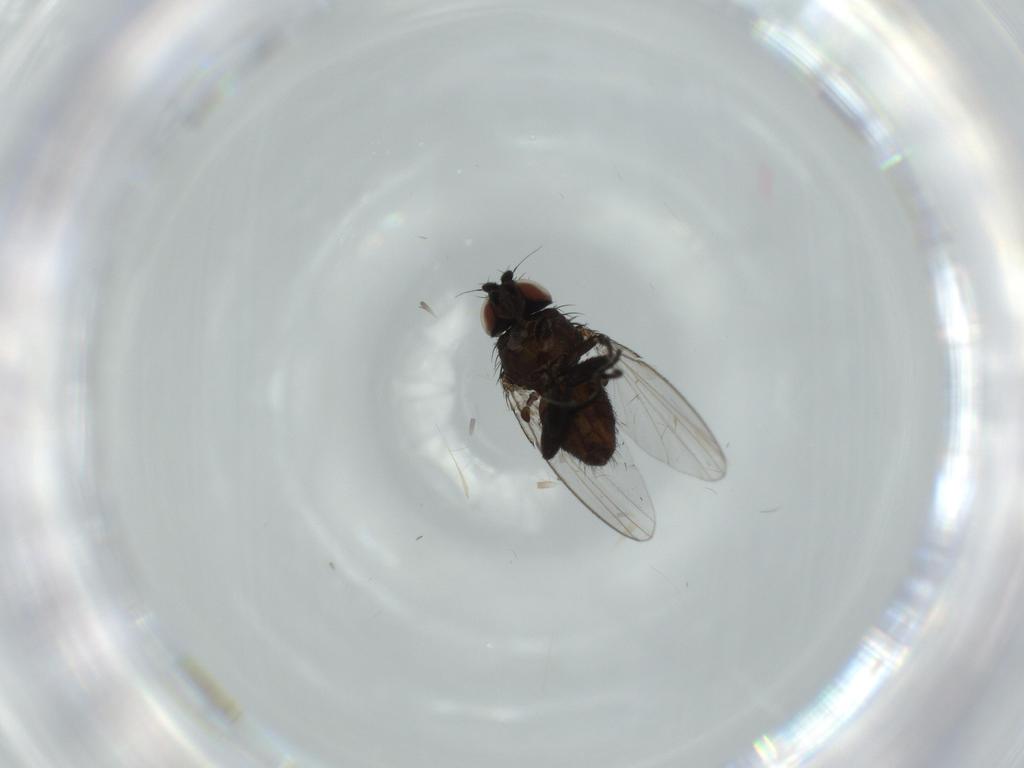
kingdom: Animalia
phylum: Arthropoda
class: Insecta
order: Diptera
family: Milichiidae
